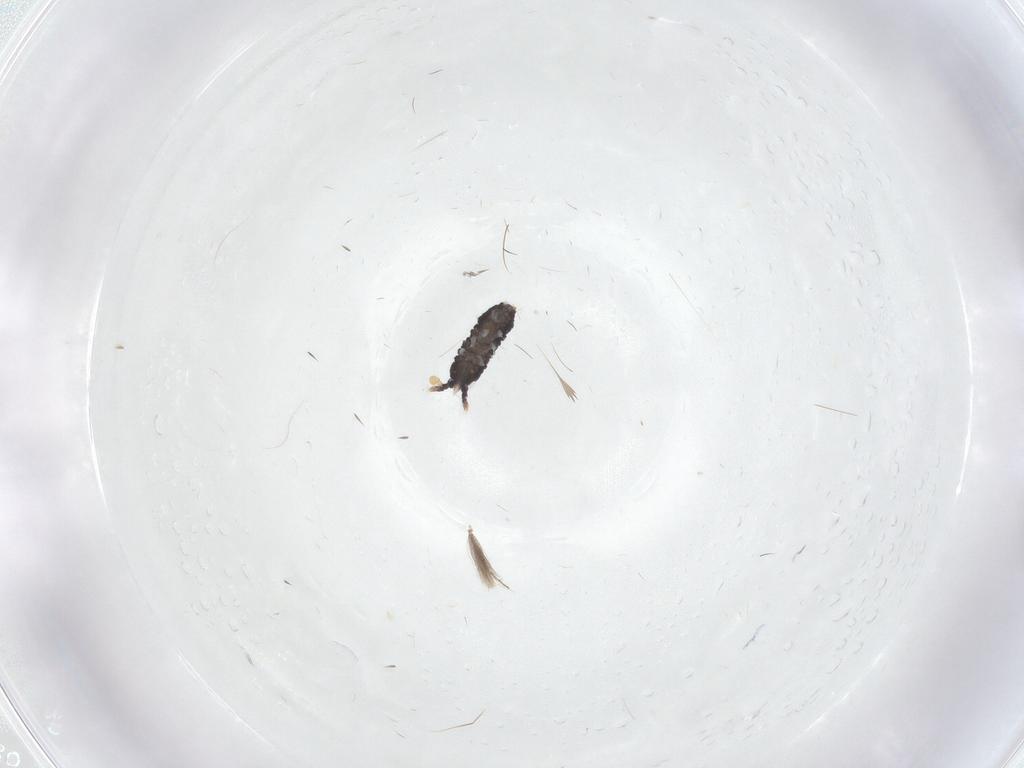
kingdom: Animalia
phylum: Arthropoda
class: Collembola
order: Poduromorpha
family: Neanuridae
